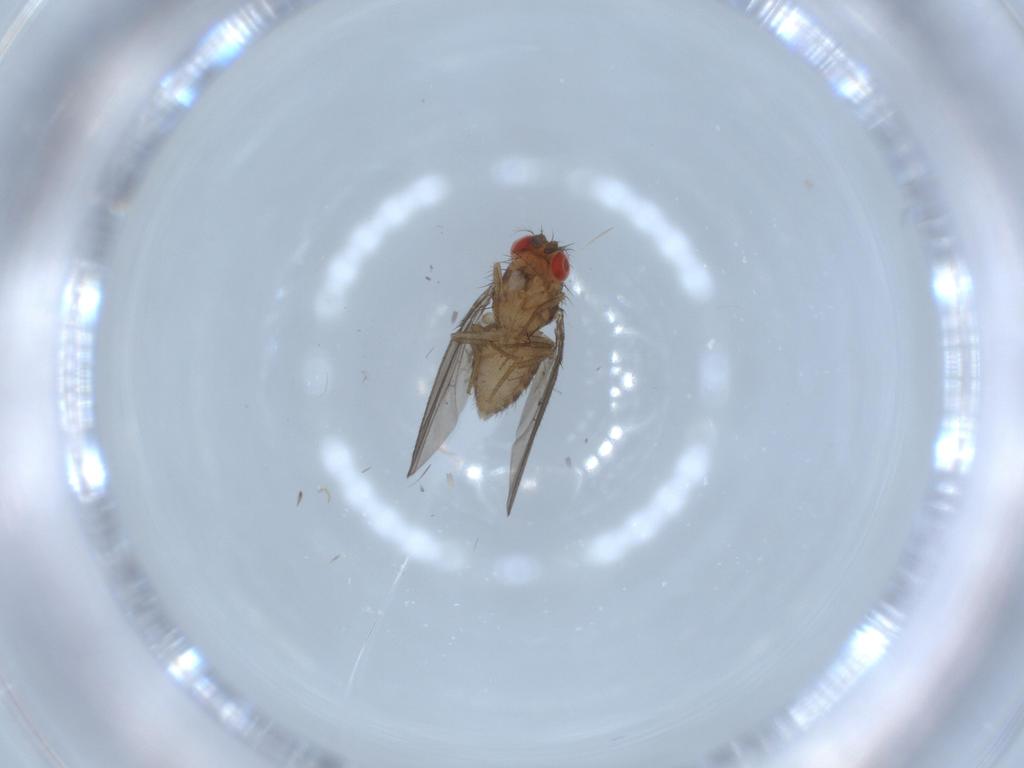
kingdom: Animalia
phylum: Arthropoda
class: Insecta
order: Diptera
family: Drosophilidae
